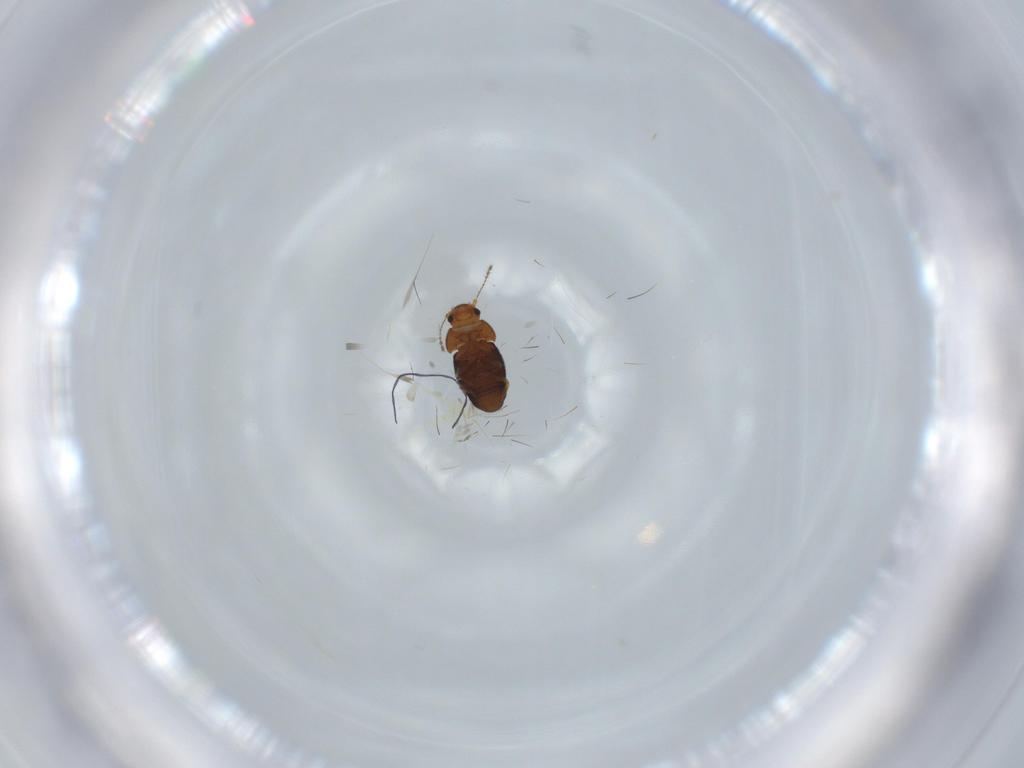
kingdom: Animalia
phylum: Arthropoda
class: Insecta
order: Coleoptera
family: Ptiliidae
